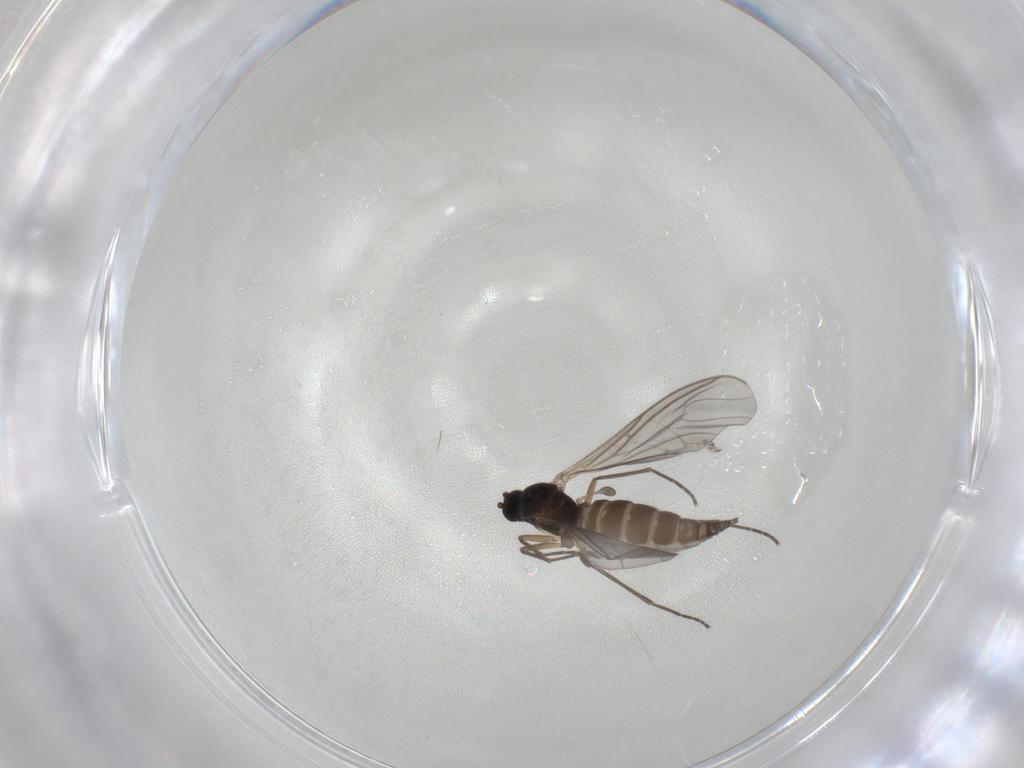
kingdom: Animalia
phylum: Arthropoda
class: Insecta
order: Diptera
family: Sciaridae
